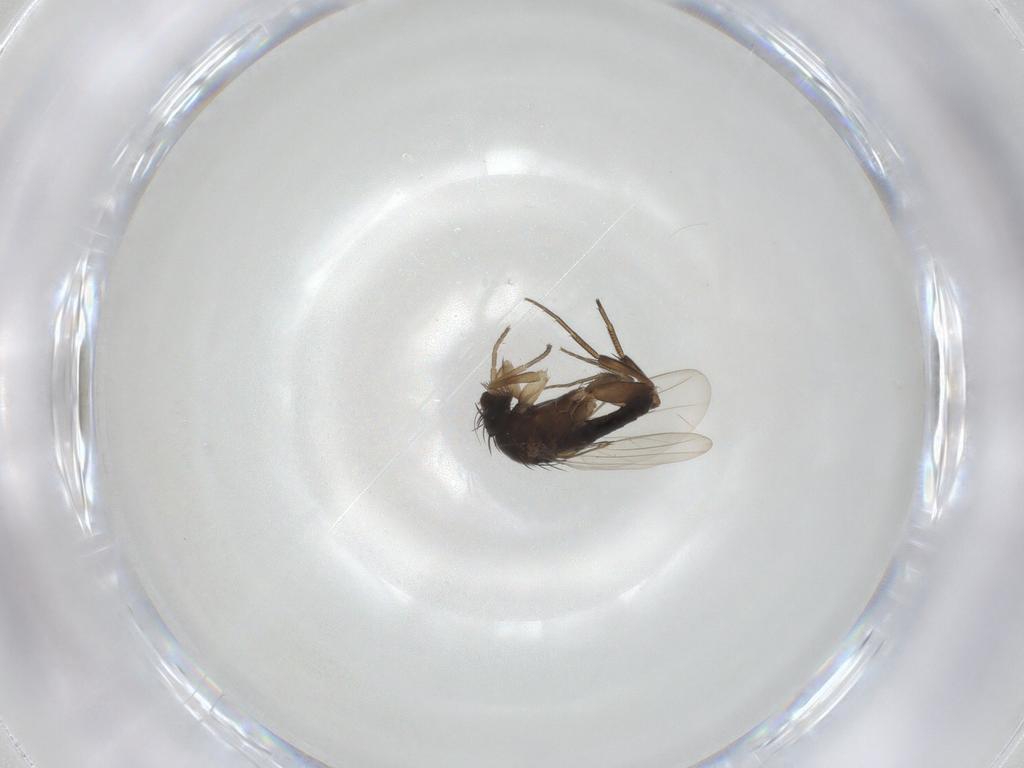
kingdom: Animalia
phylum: Arthropoda
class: Insecta
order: Diptera
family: Phoridae
